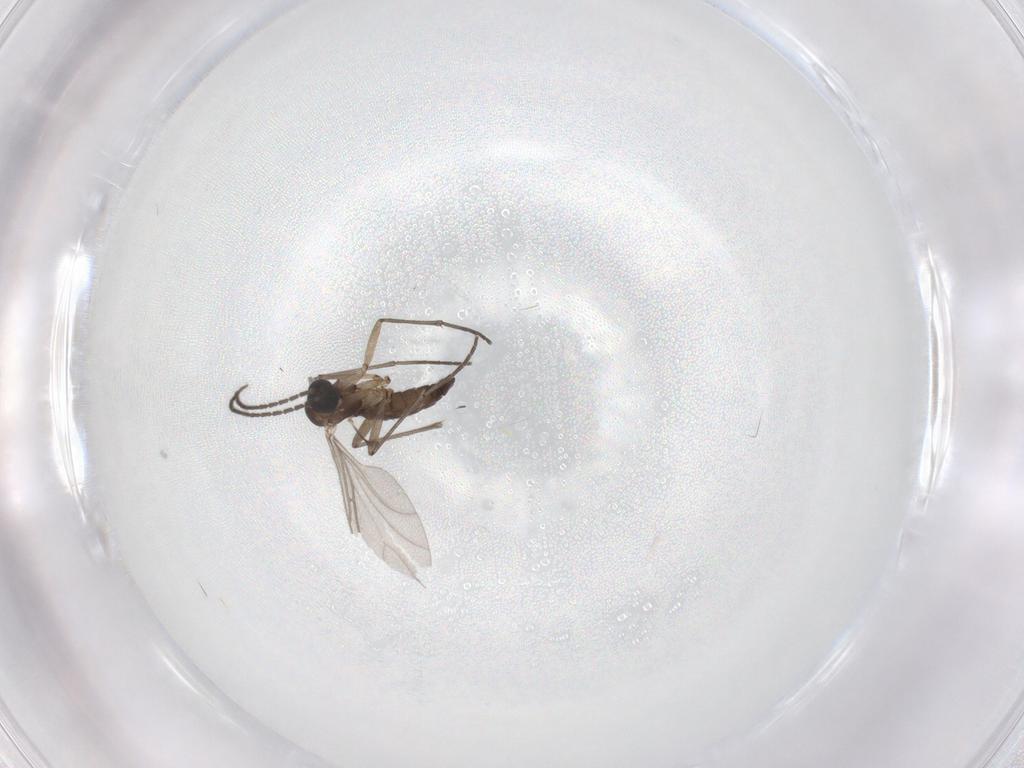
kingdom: Animalia
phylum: Arthropoda
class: Insecta
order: Diptera
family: Sciaridae
